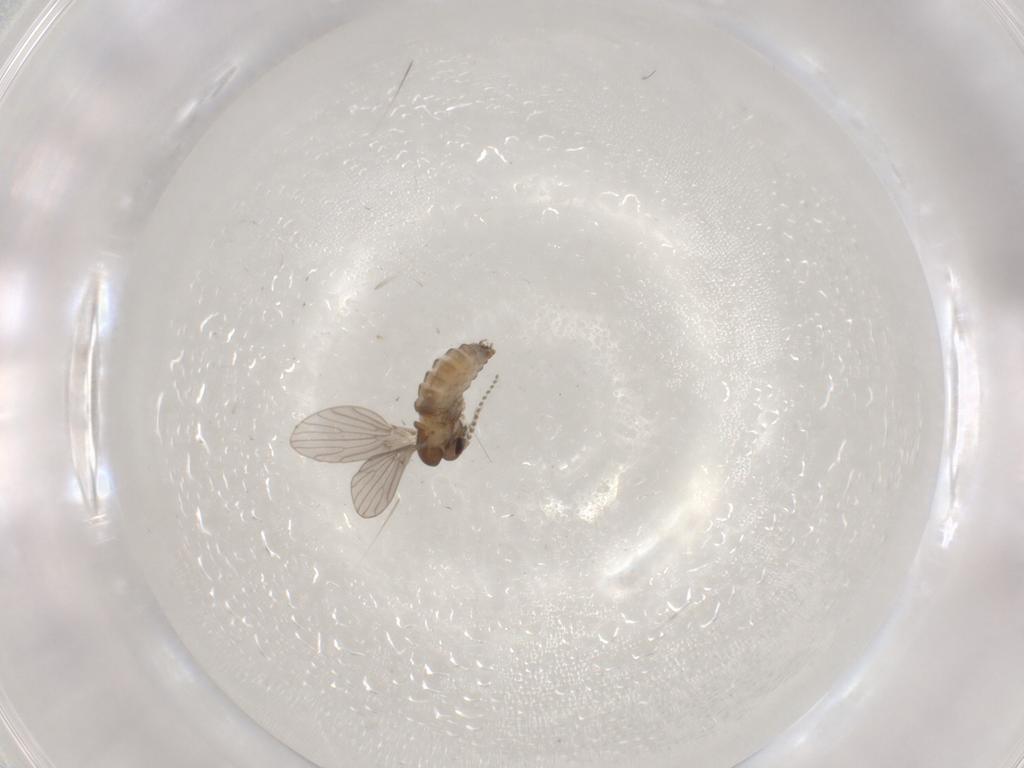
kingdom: Animalia
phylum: Arthropoda
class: Insecta
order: Diptera
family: Psychodidae
